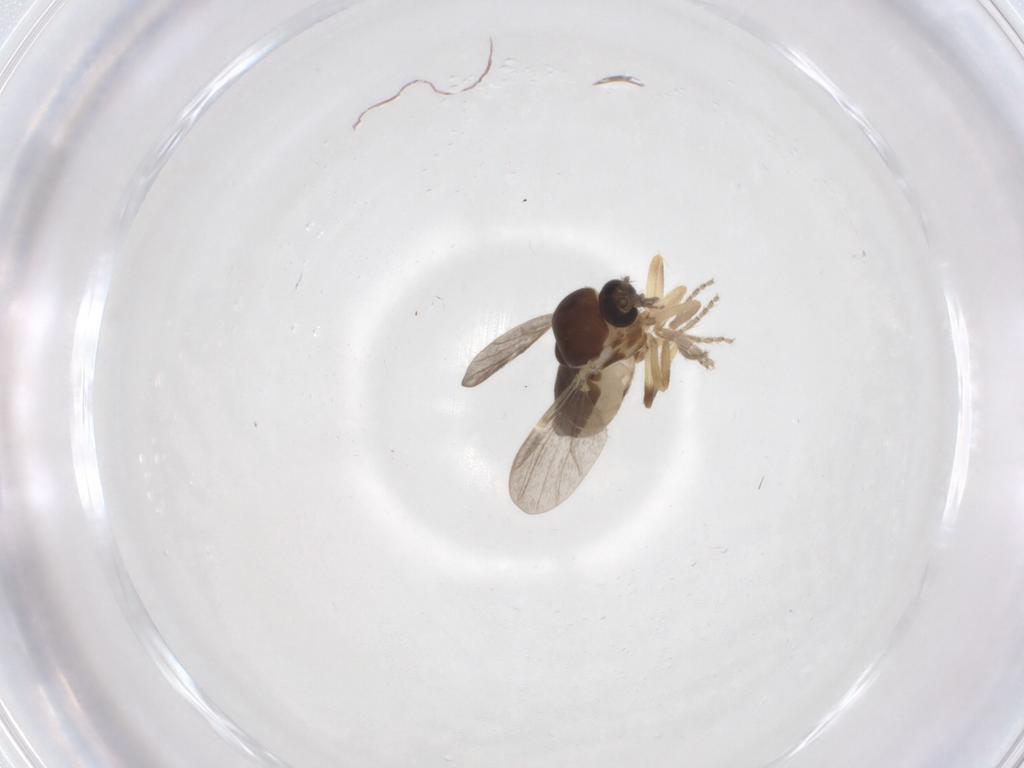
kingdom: Animalia
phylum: Arthropoda
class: Insecta
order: Diptera
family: Ceratopogonidae
